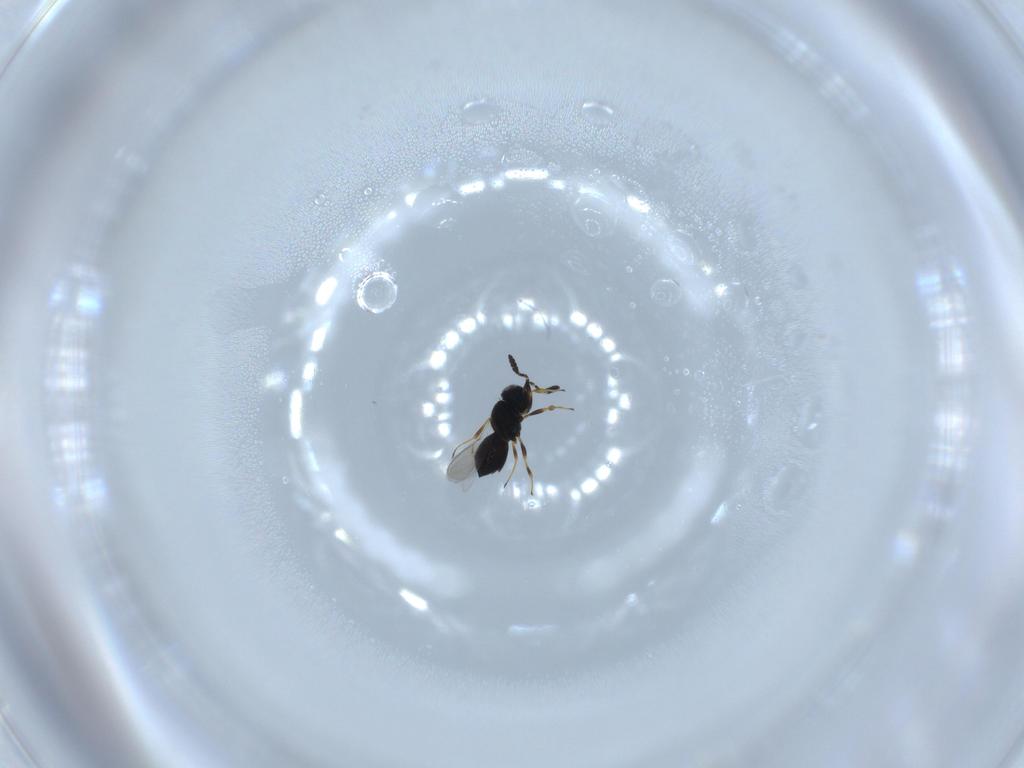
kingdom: Animalia
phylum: Arthropoda
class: Insecta
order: Hymenoptera
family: Scelionidae
